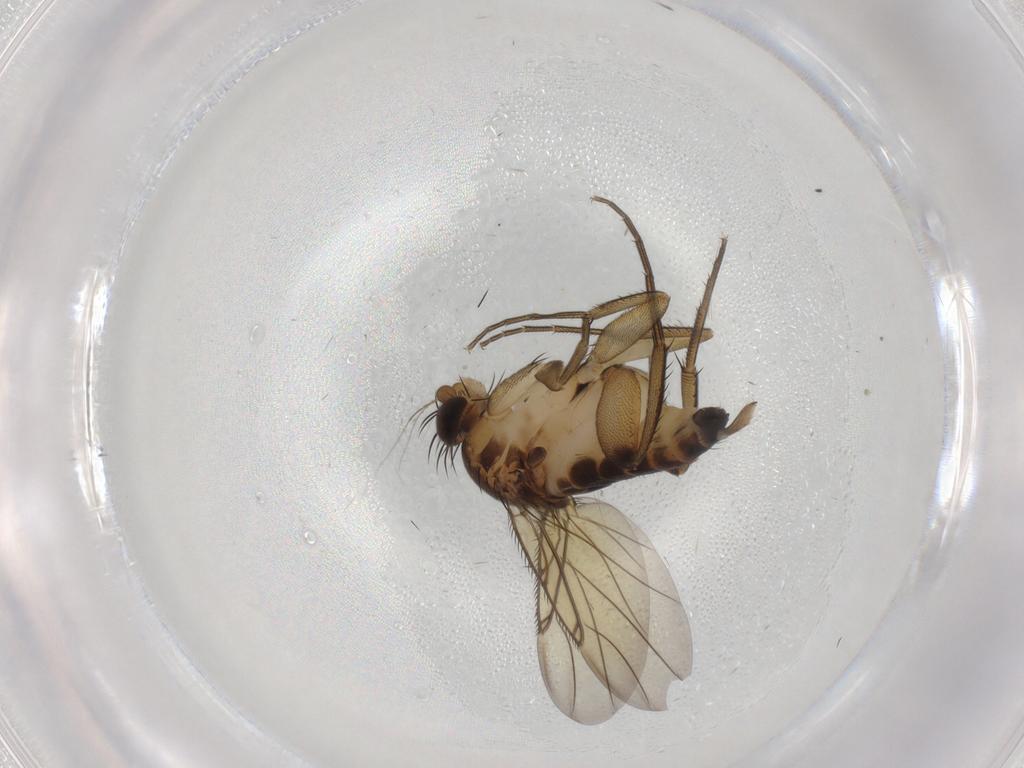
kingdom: Animalia
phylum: Arthropoda
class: Insecta
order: Diptera
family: Phoridae
